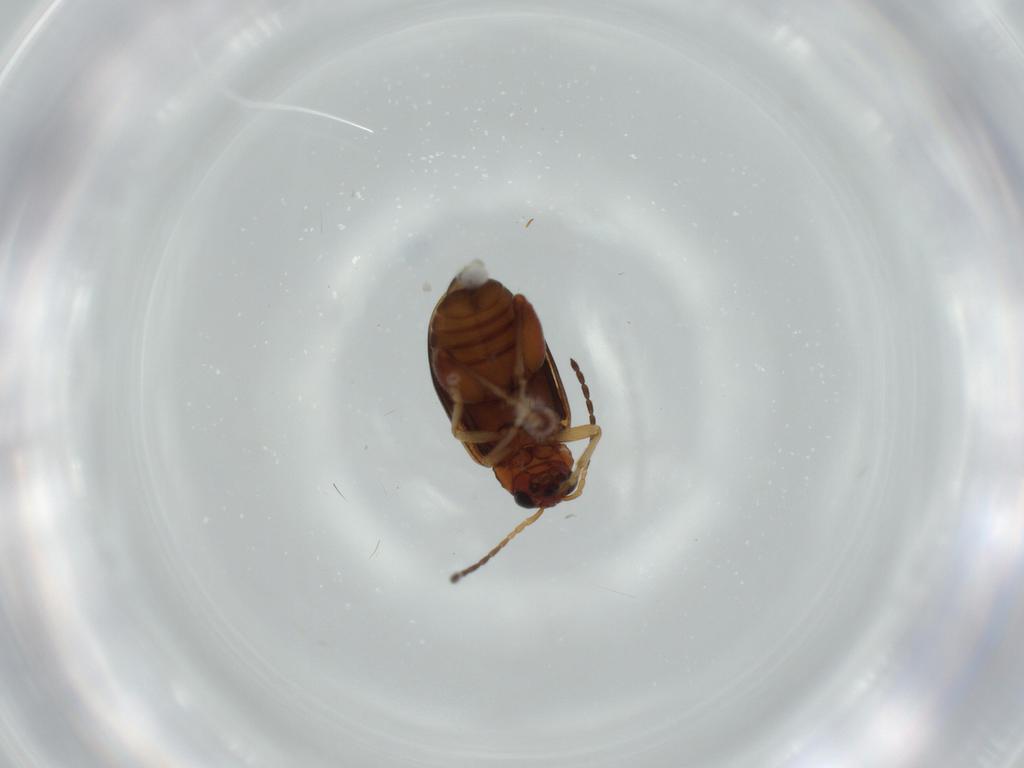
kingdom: Animalia
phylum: Arthropoda
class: Insecta
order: Coleoptera
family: Chrysomelidae
